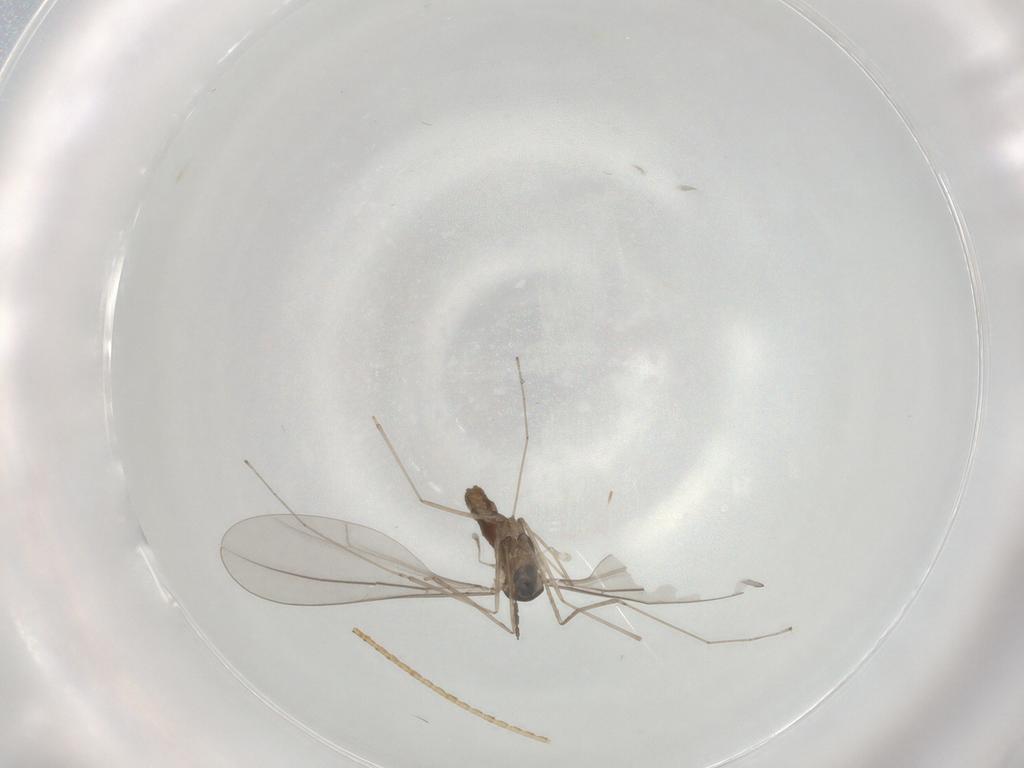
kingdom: Animalia
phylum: Arthropoda
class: Insecta
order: Diptera
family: Cecidomyiidae
